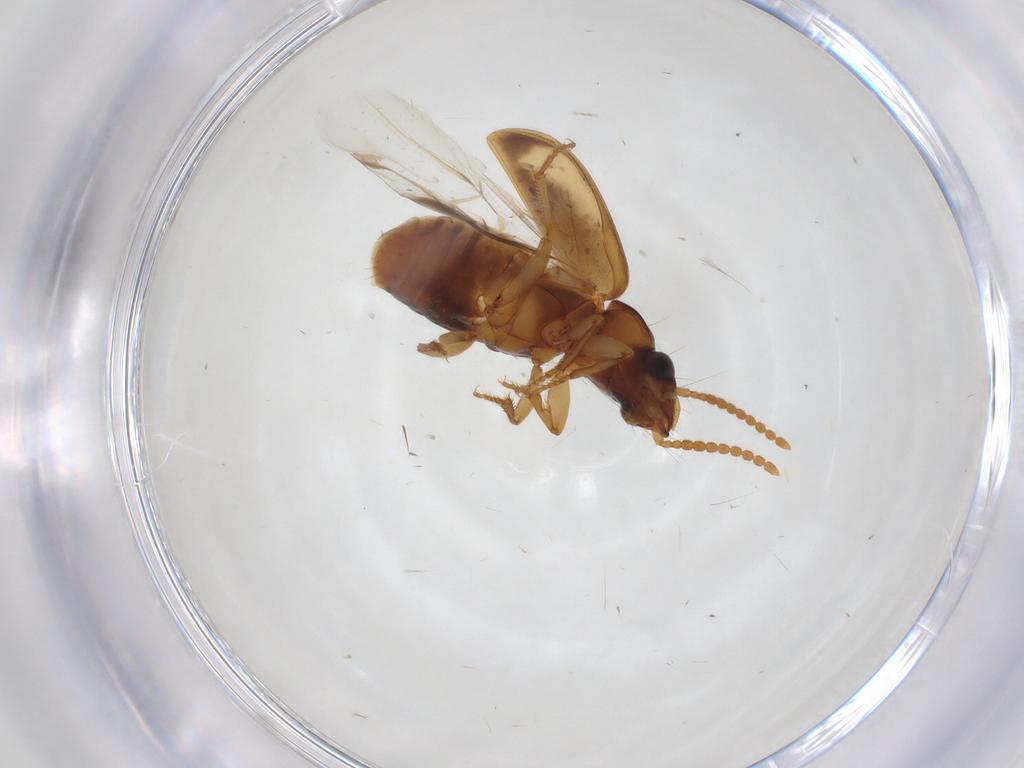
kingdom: Animalia
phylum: Arthropoda
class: Insecta
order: Coleoptera
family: Carabidae
